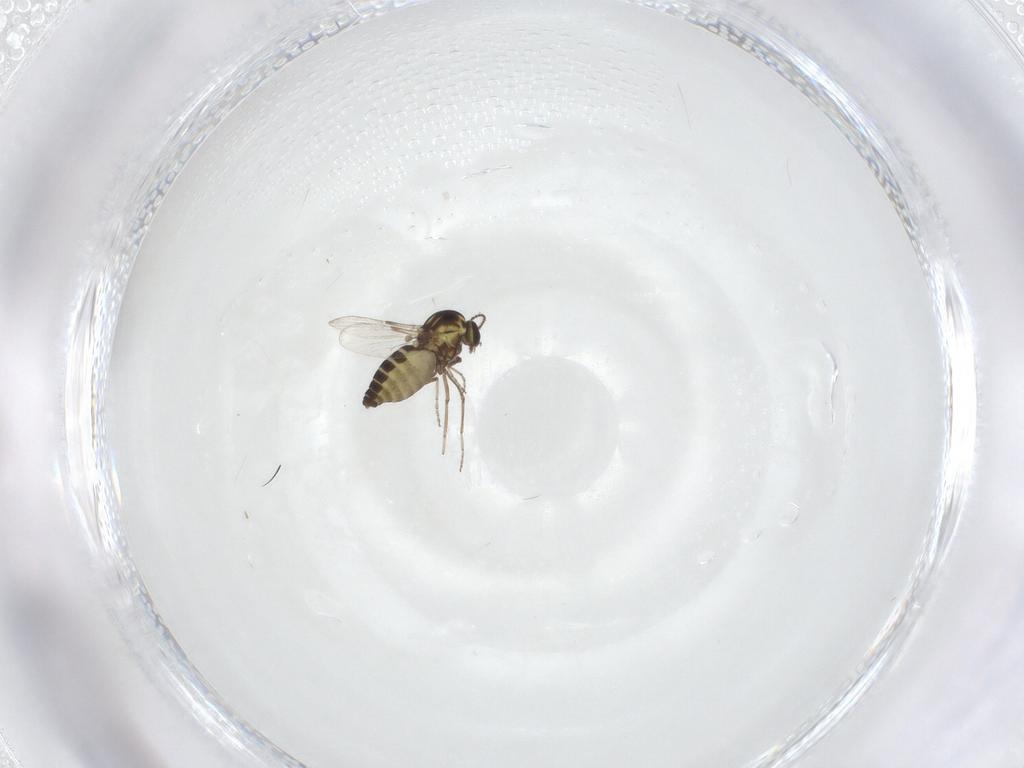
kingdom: Animalia
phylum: Arthropoda
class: Insecta
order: Diptera
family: Ceratopogonidae
